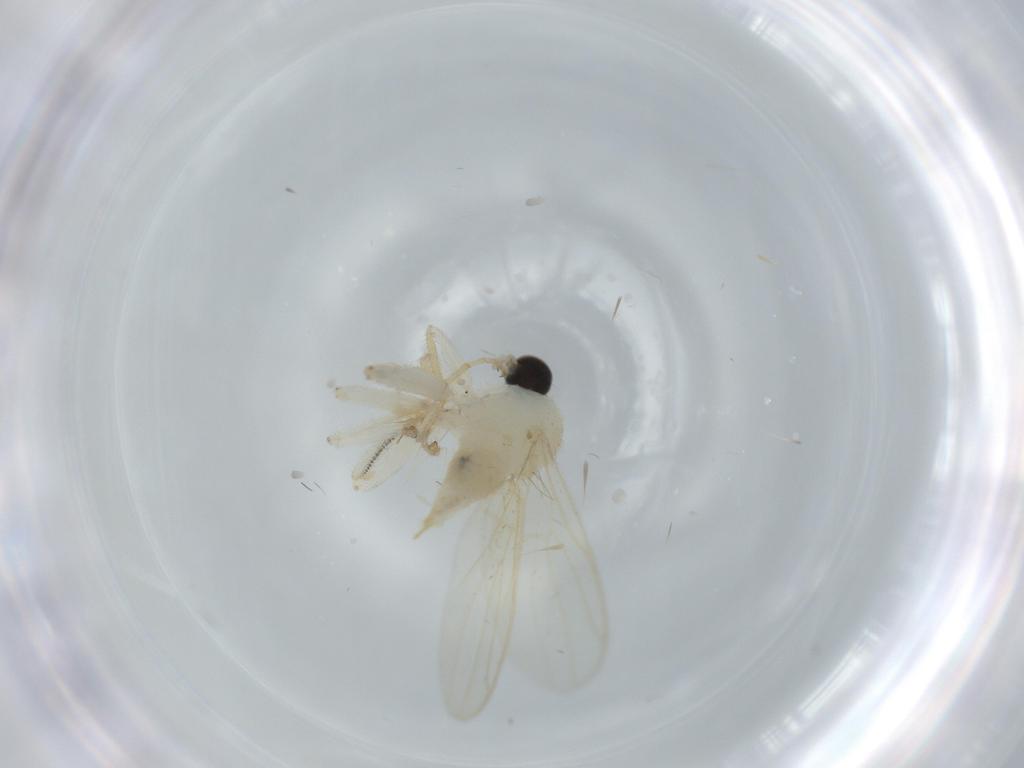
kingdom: Animalia
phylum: Arthropoda
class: Insecta
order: Diptera
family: Hybotidae
